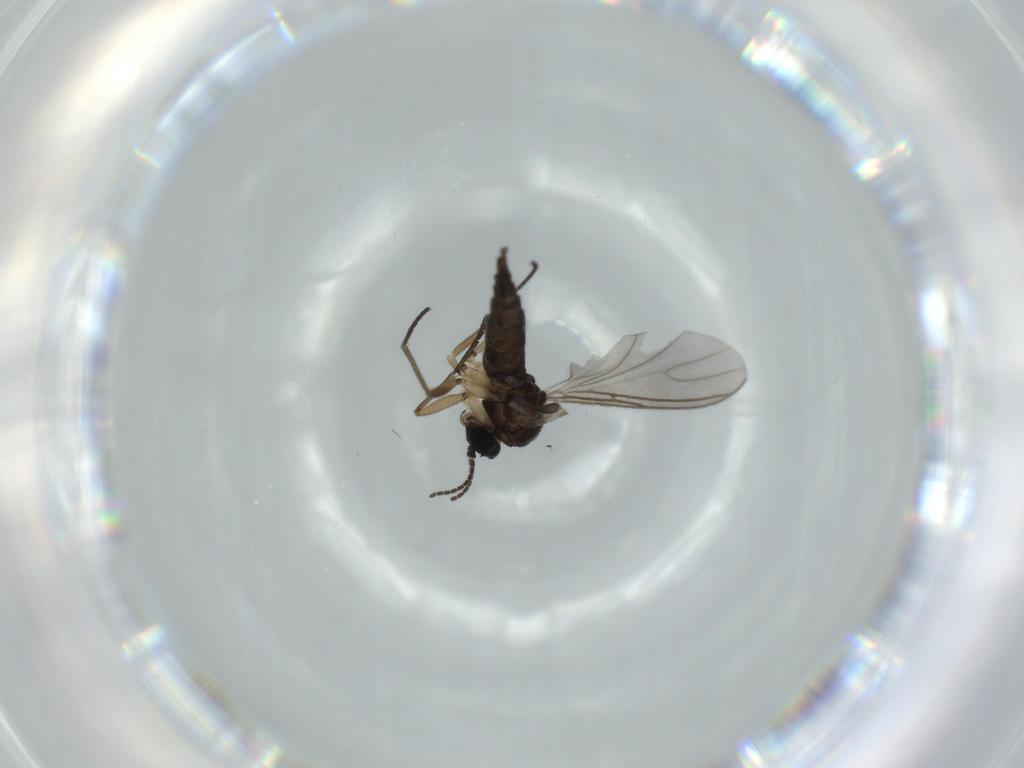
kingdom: Animalia
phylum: Arthropoda
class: Insecta
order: Diptera
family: Sciaridae
